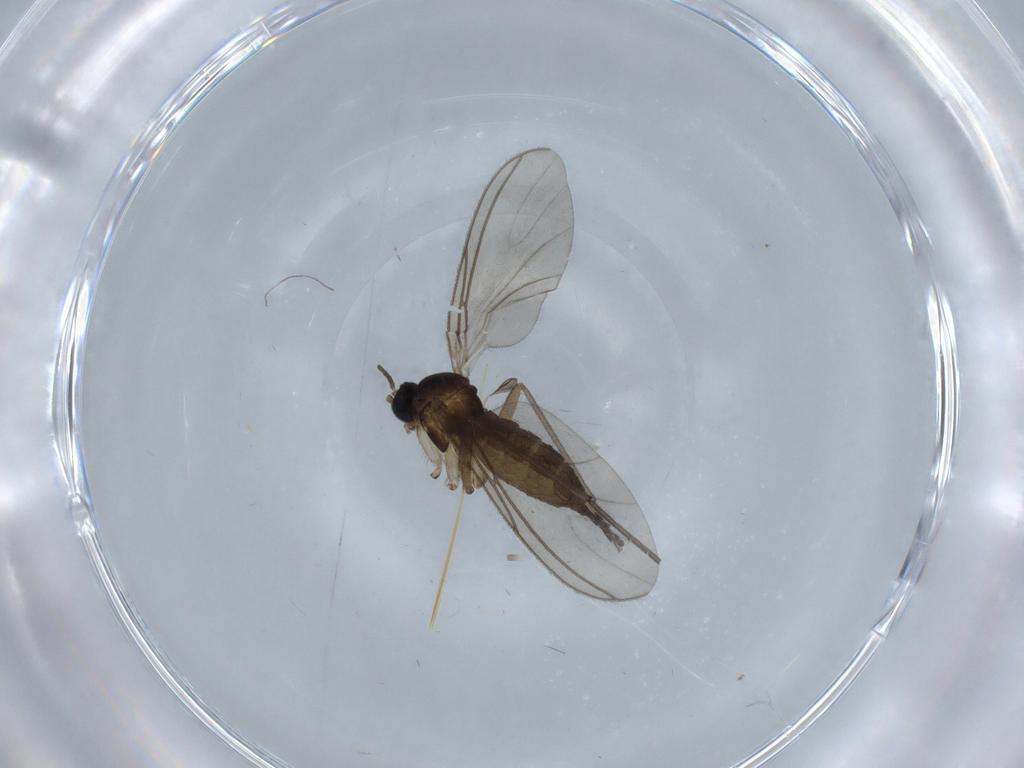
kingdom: Animalia
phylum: Arthropoda
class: Insecta
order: Diptera
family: Sciaridae
